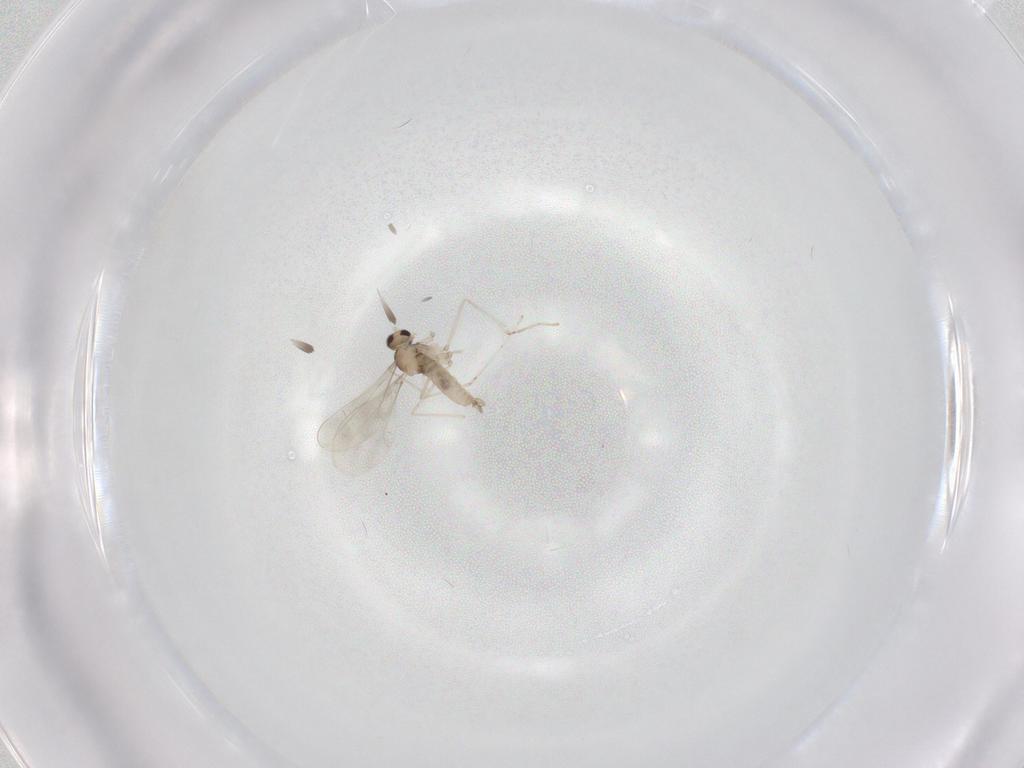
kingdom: Animalia
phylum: Arthropoda
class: Insecta
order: Diptera
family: Cecidomyiidae
